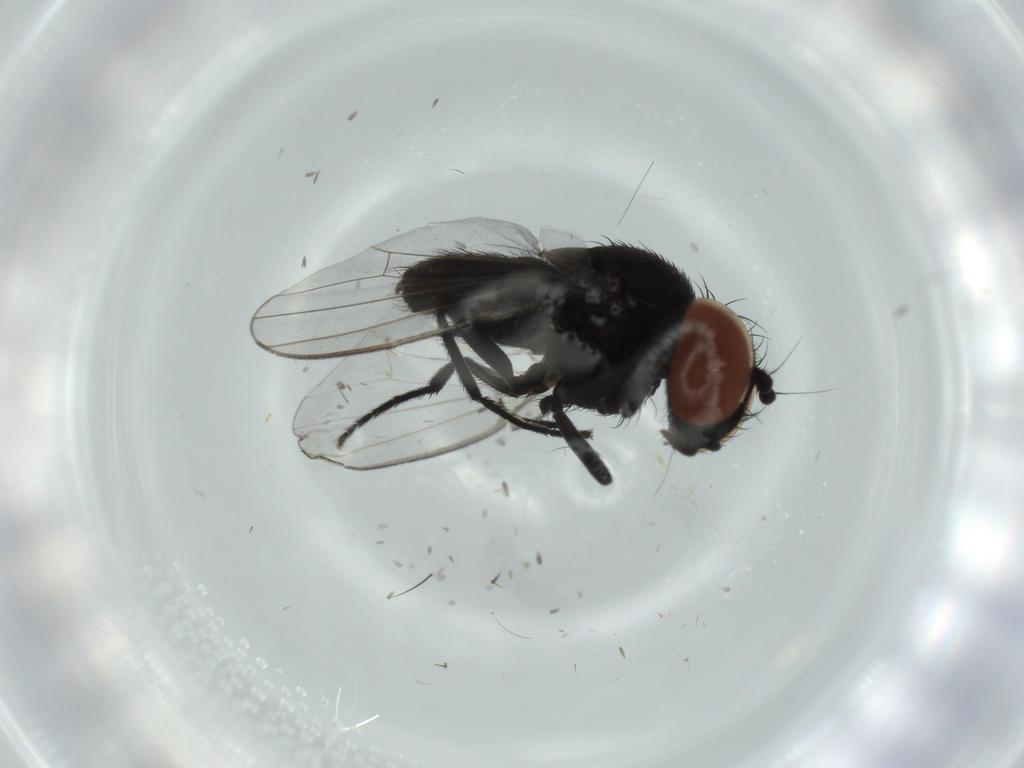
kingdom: Animalia
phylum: Arthropoda
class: Insecta
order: Diptera
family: Milichiidae
